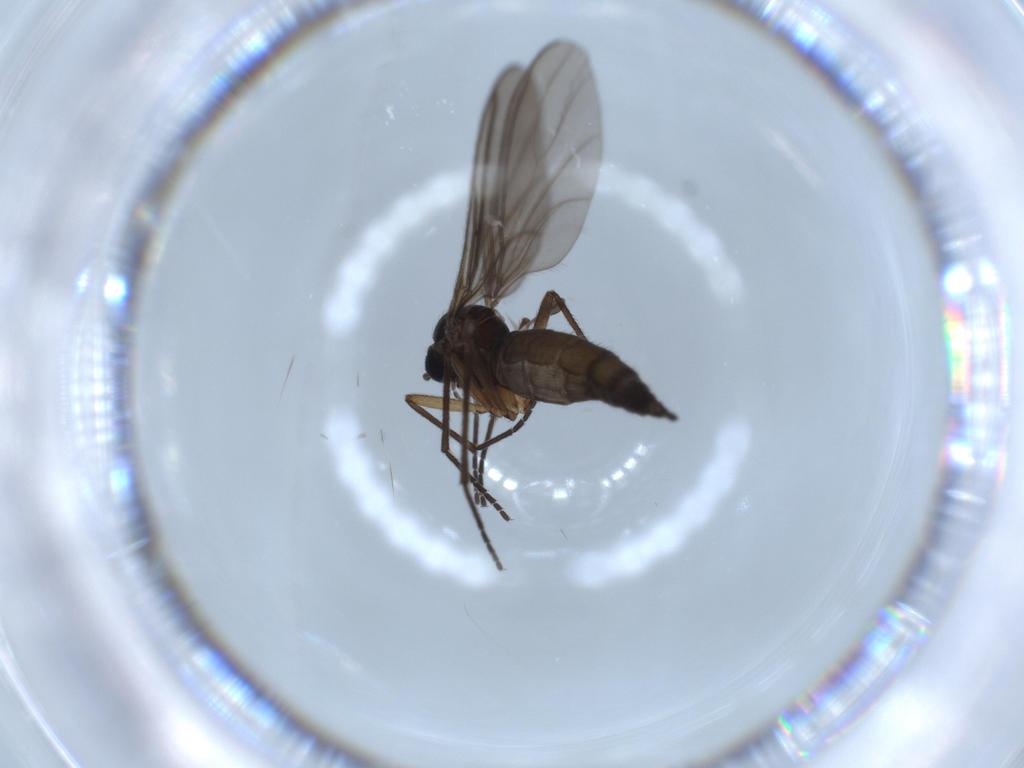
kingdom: Animalia
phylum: Arthropoda
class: Insecta
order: Diptera
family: Sciaridae
